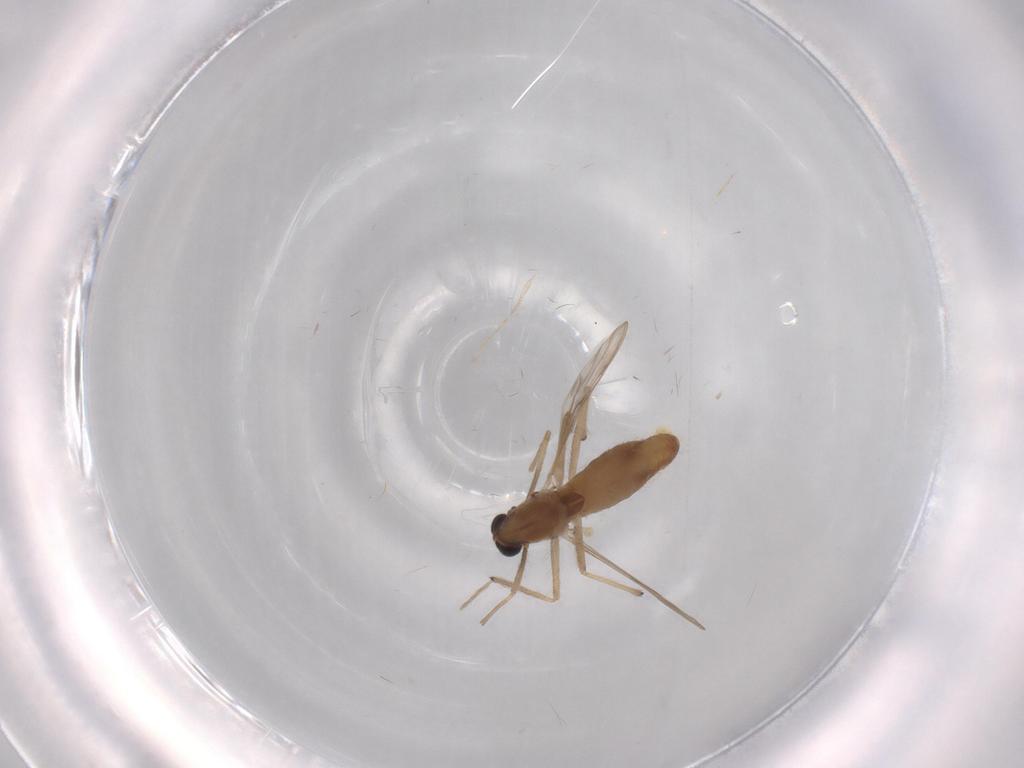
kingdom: Animalia
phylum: Arthropoda
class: Insecta
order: Diptera
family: Chironomidae
